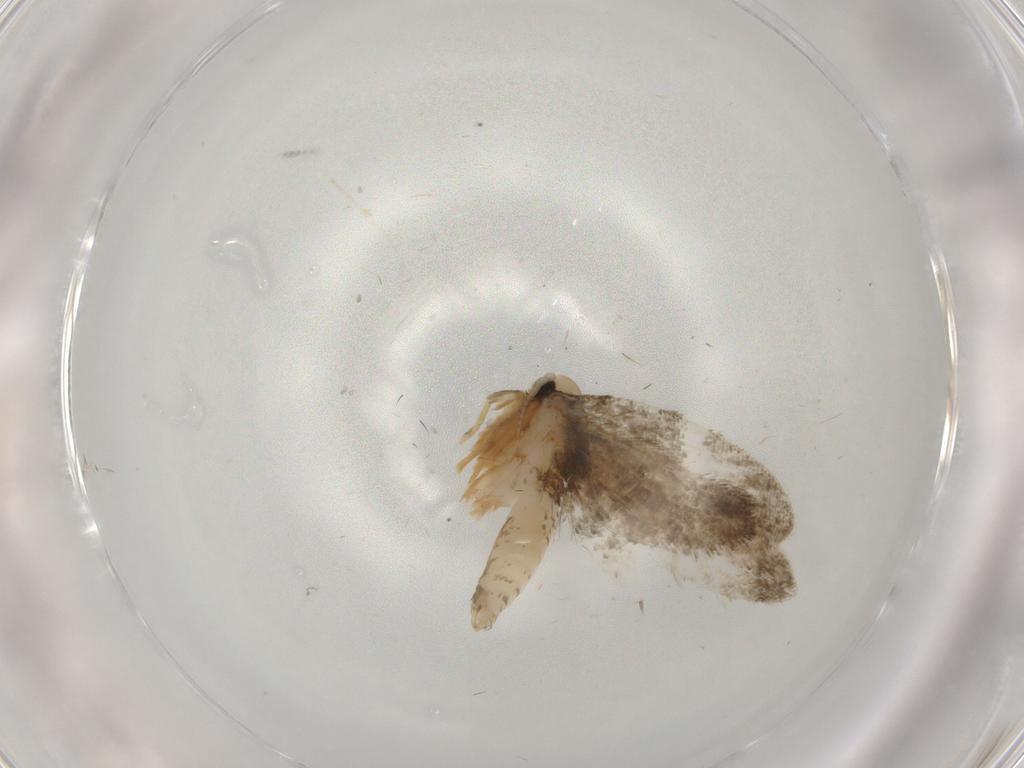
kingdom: Animalia
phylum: Arthropoda
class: Insecta
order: Lepidoptera
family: Psychidae
